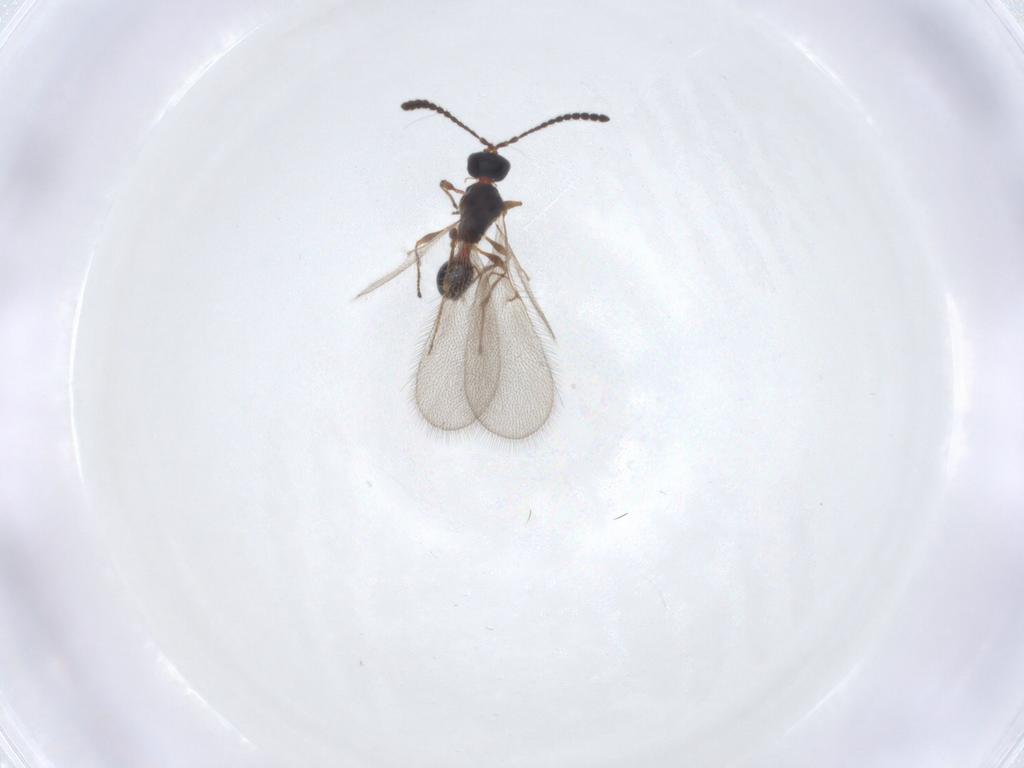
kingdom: Animalia
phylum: Arthropoda
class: Insecta
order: Hymenoptera
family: Diapriidae
